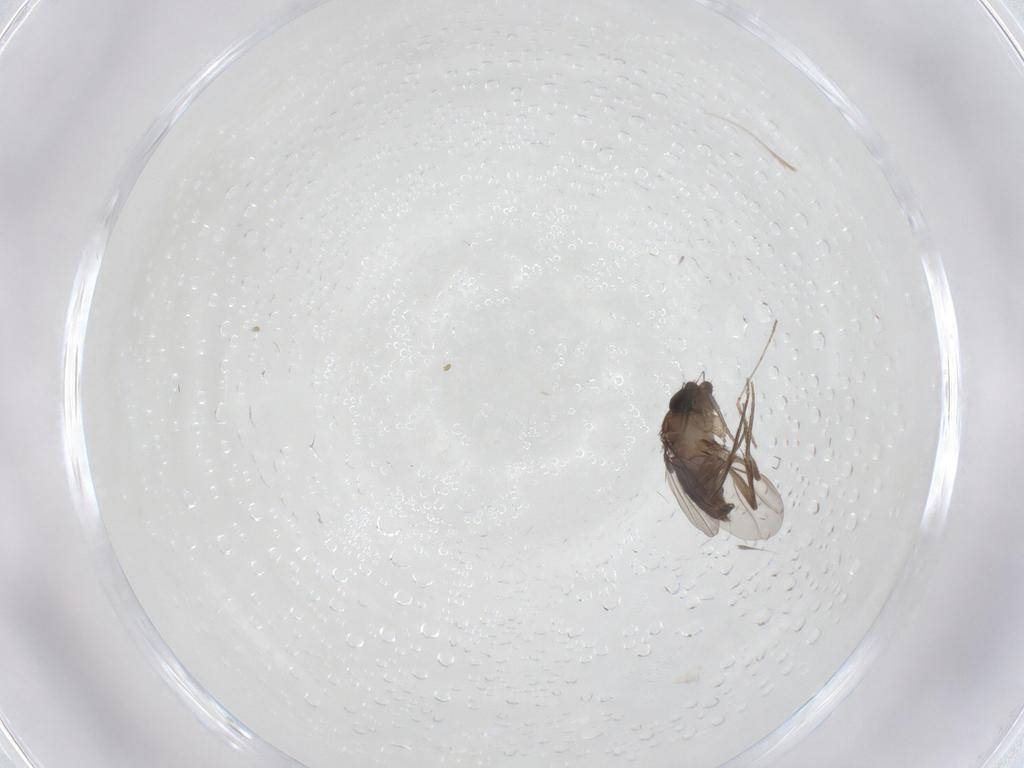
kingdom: Animalia
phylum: Arthropoda
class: Insecta
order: Diptera
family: Phoridae
